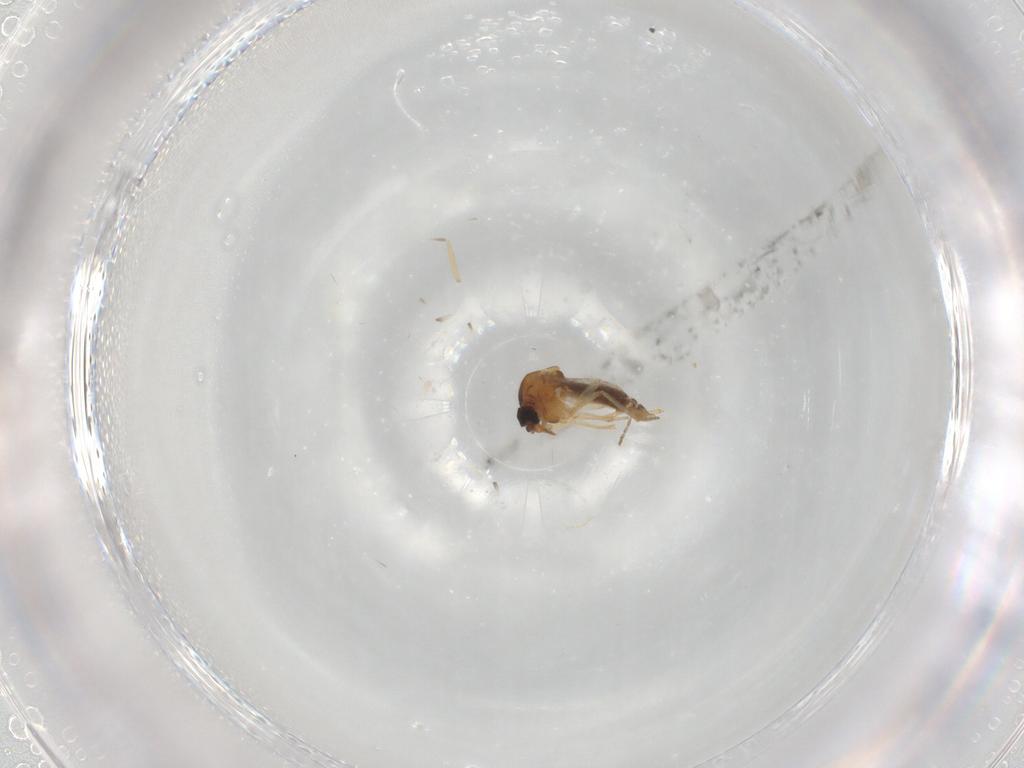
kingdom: Animalia
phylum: Arthropoda
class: Insecta
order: Diptera
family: Ceratopogonidae
